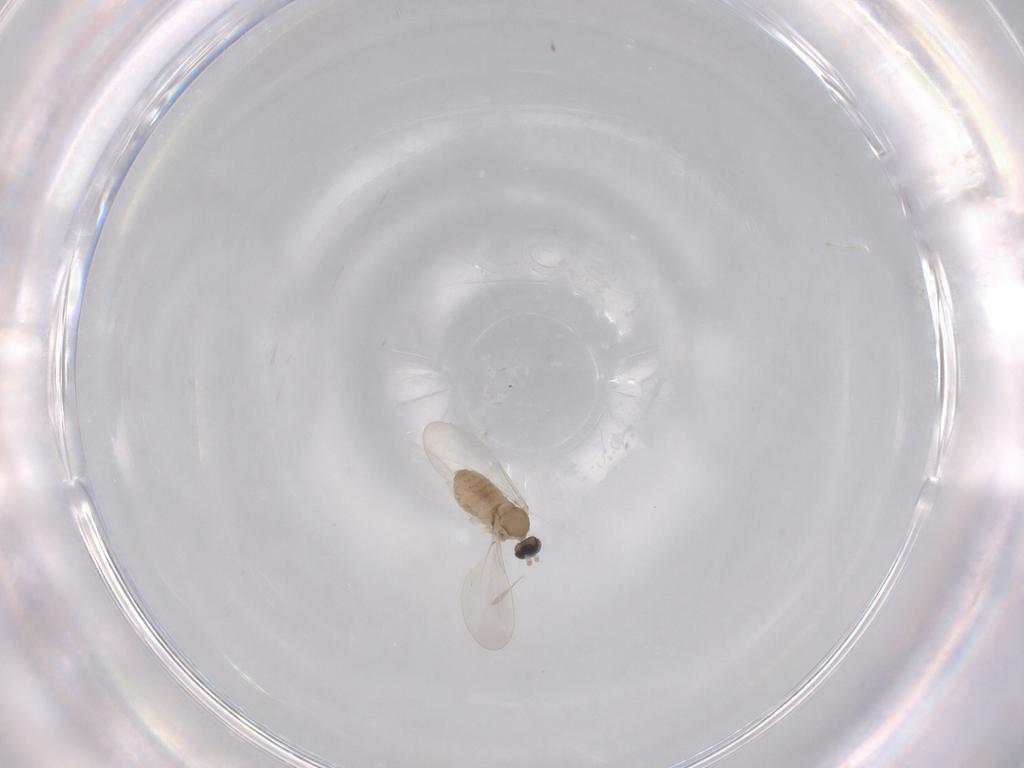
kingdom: Animalia
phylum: Arthropoda
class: Insecta
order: Diptera
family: Cecidomyiidae
